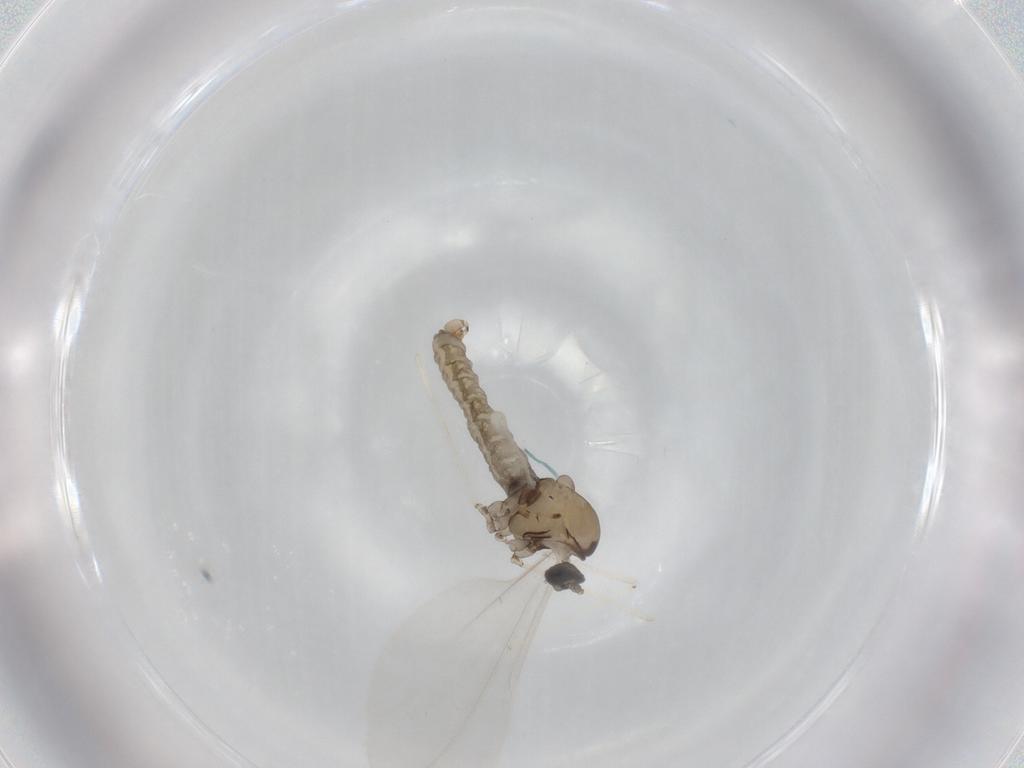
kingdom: Animalia
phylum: Arthropoda
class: Insecta
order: Diptera
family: Cecidomyiidae
